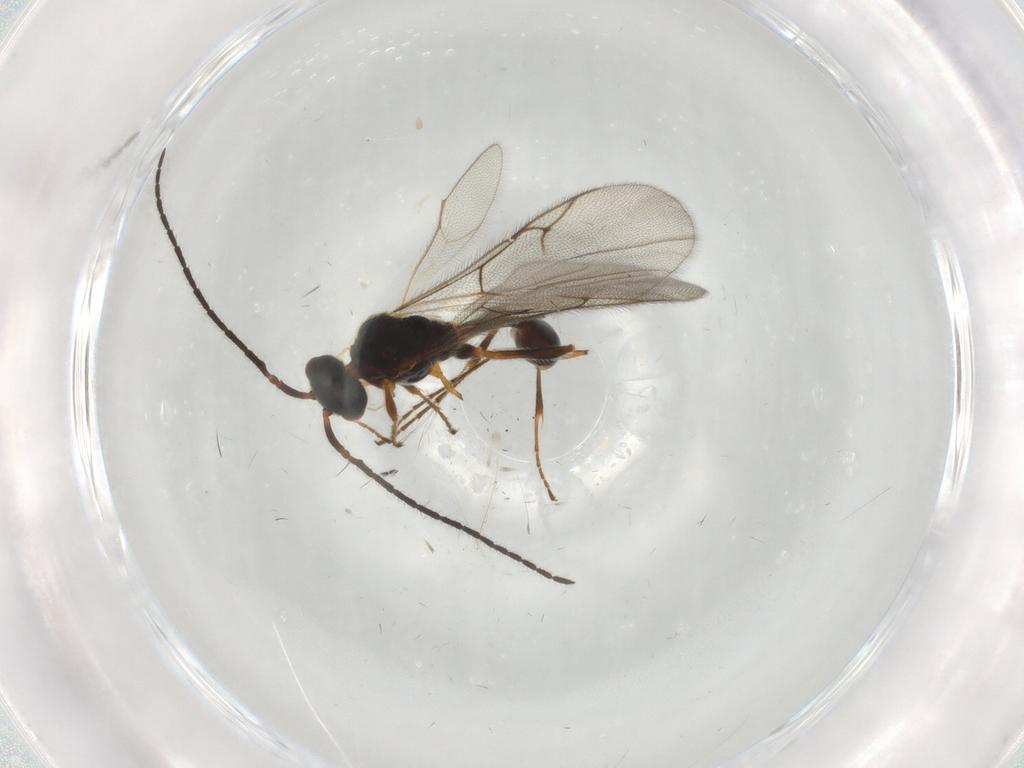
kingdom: Animalia
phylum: Arthropoda
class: Insecta
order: Hymenoptera
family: Diapriidae
